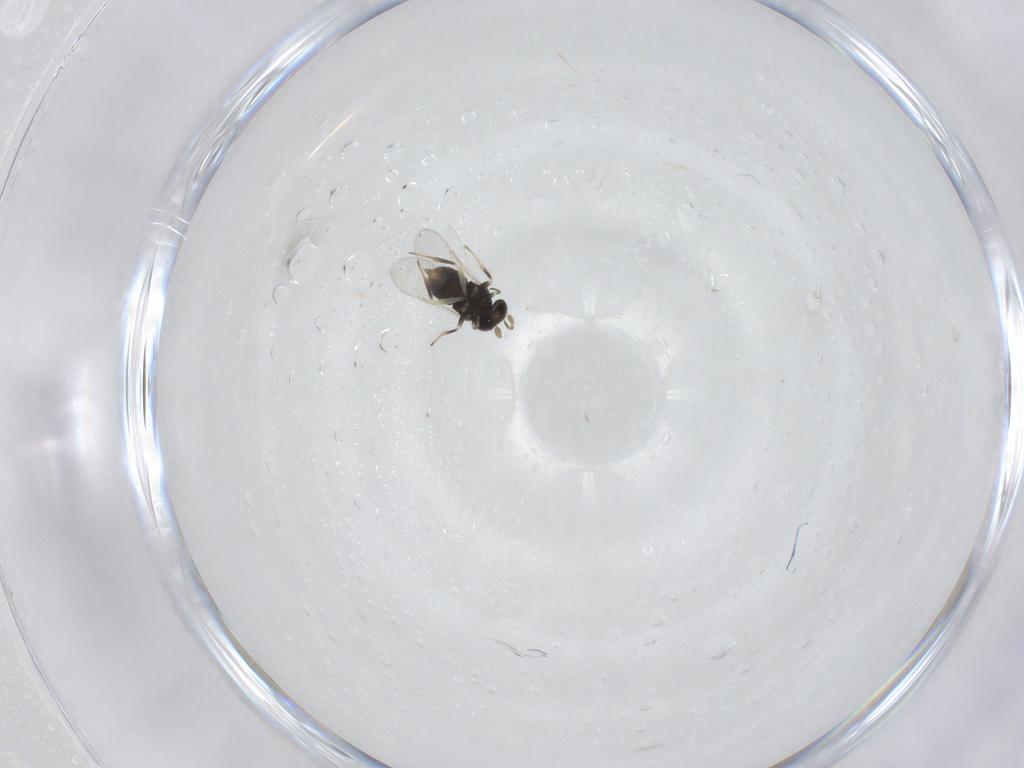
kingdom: Animalia
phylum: Arthropoda
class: Insecta
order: Hymenoptera
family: Aphelinidae
